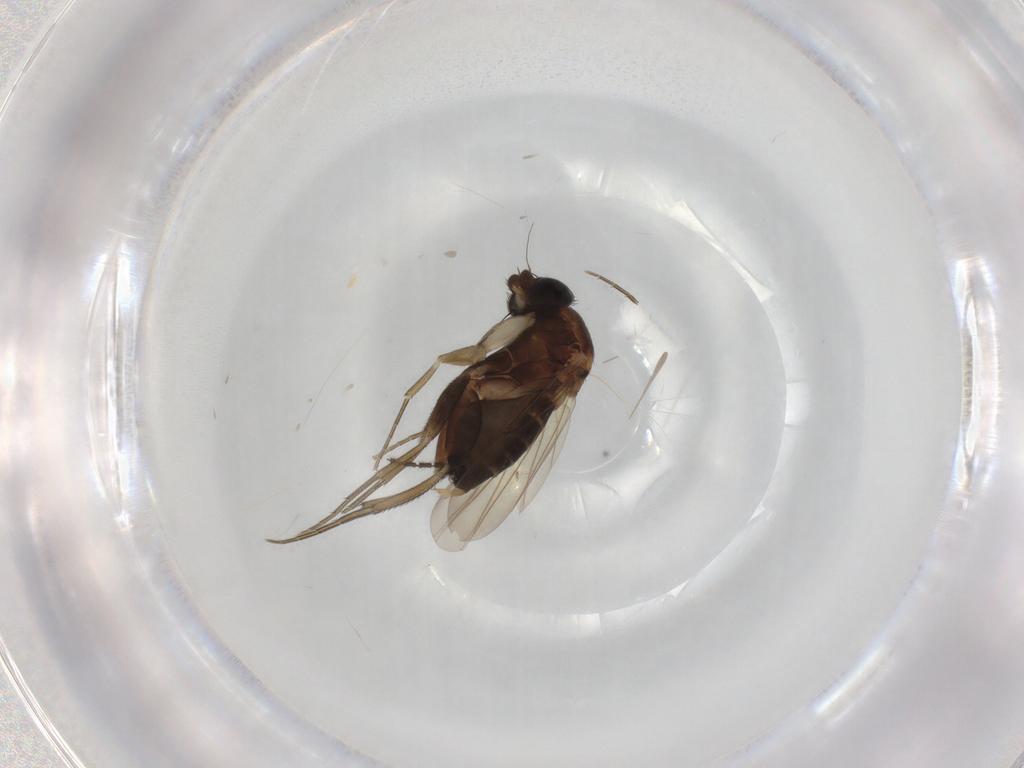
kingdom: Animalia
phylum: Arthropoda
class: Insecta
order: Diptera
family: Phoridae
